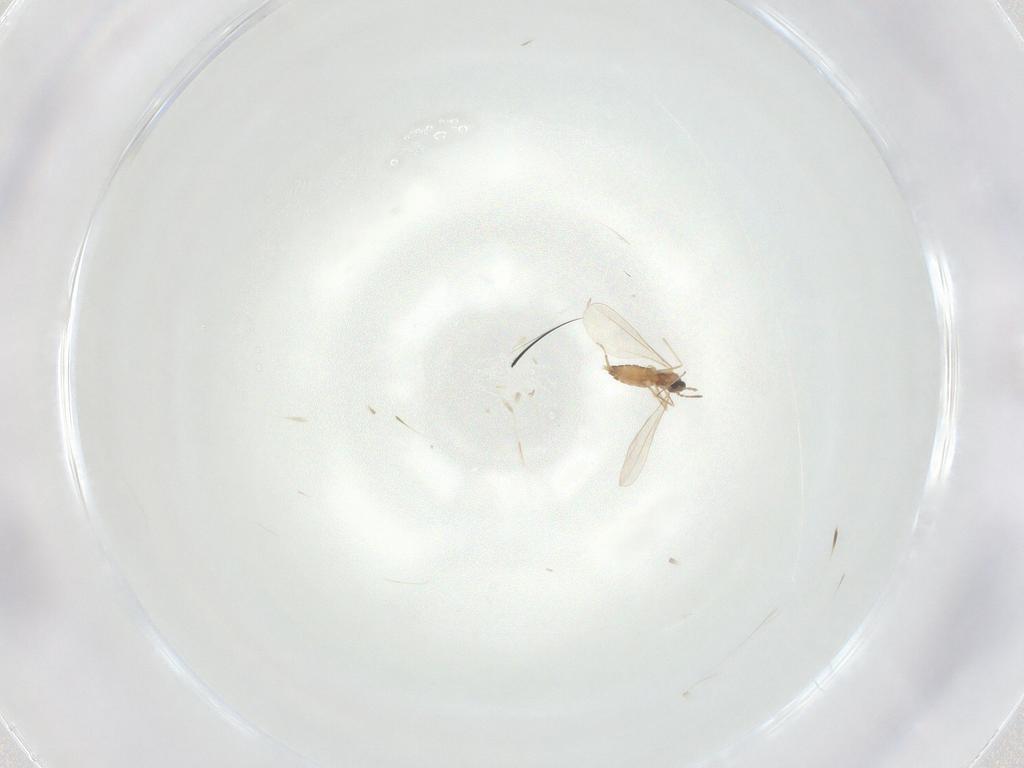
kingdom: Animalia
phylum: Arthropoda
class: Insecta
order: Diptera
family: Cecidomyiidae
